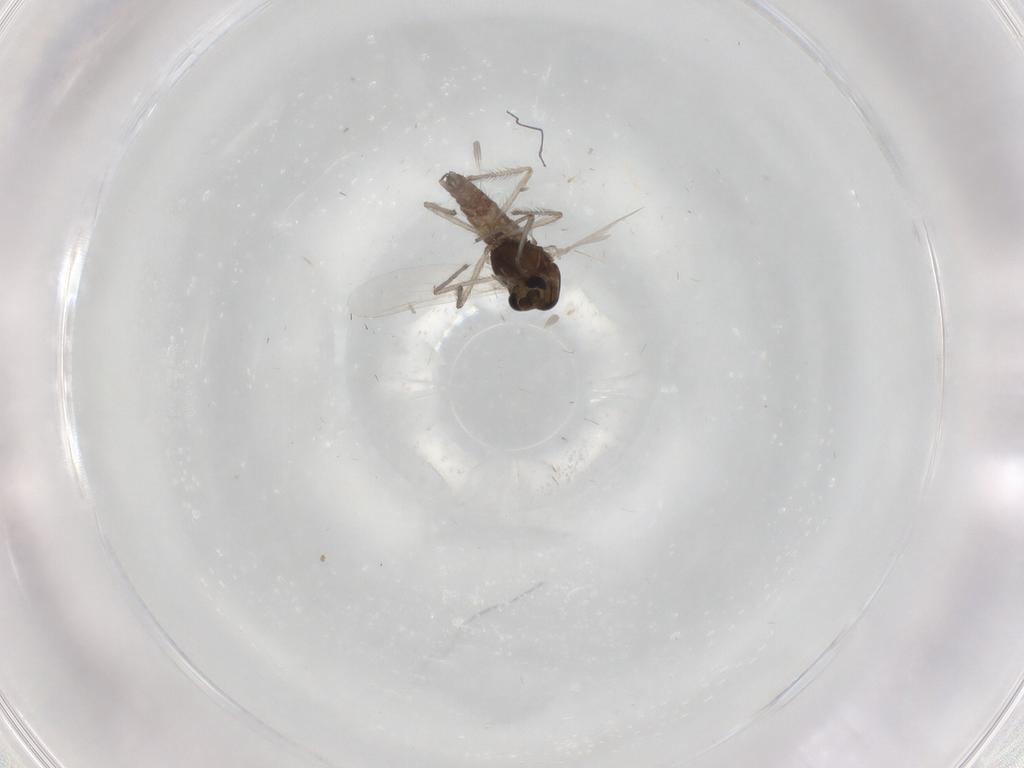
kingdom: Animalia
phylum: Arthropoda
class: Insecta
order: Diptera
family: Chironomidae
